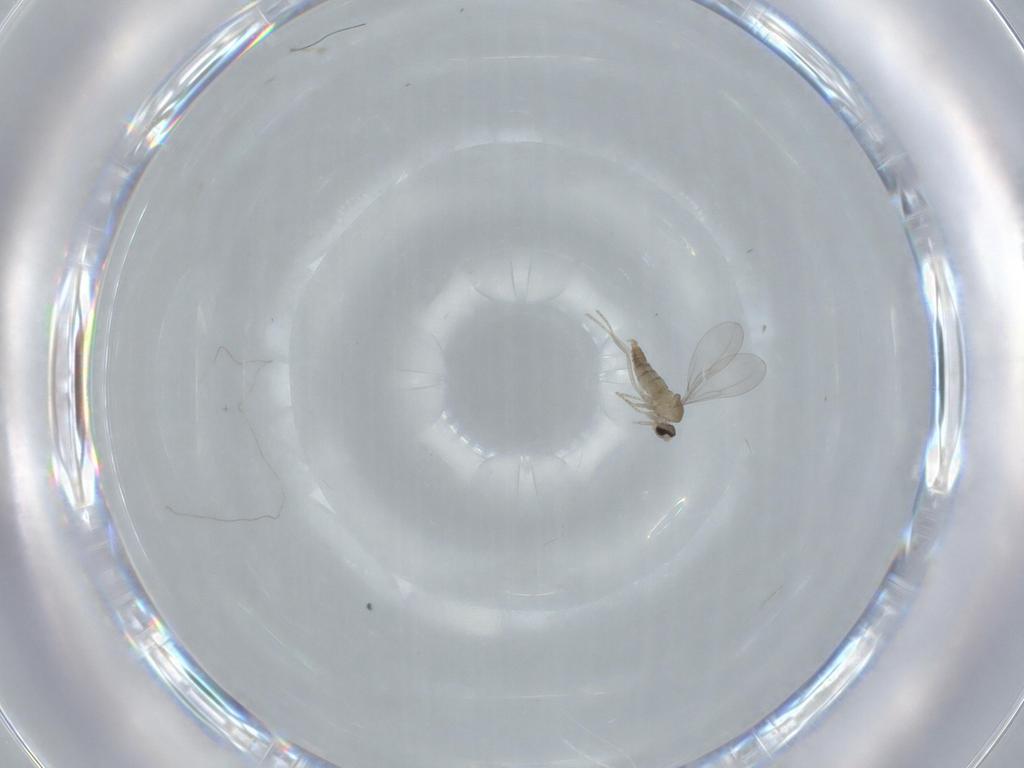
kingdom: Animalia
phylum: Arthropoda
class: Insecta
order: Diptera
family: Cecidomyiidae
